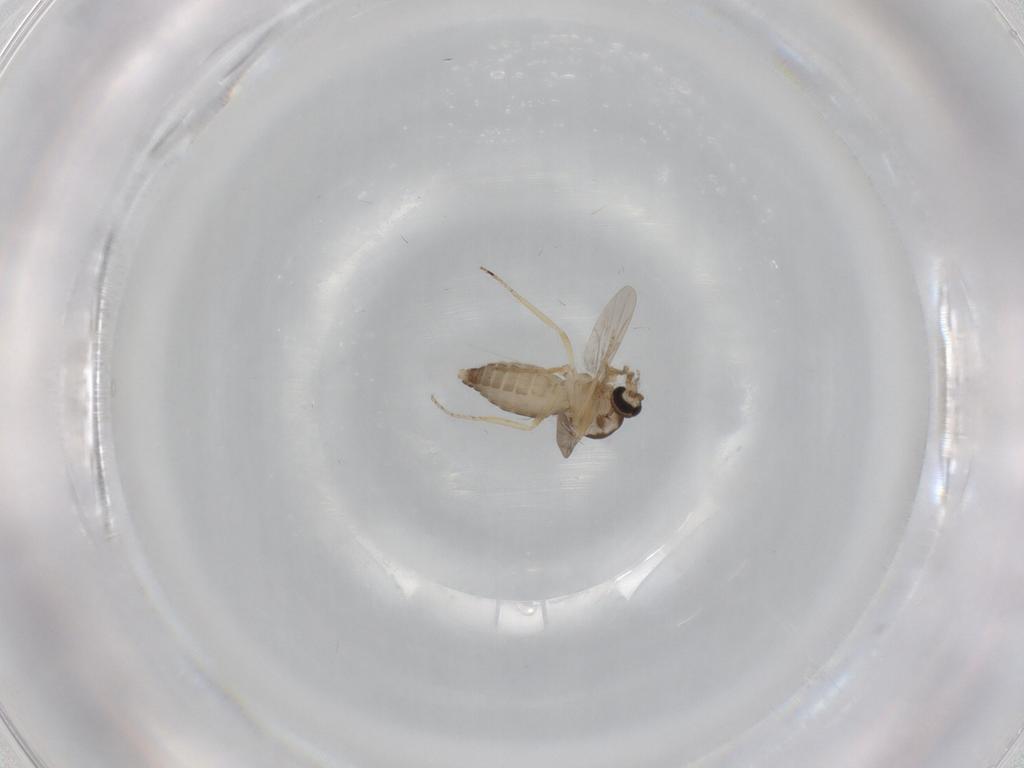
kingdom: Animalia
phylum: Arthropoda
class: Insecta
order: Diptera
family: Ceratopogonidae
